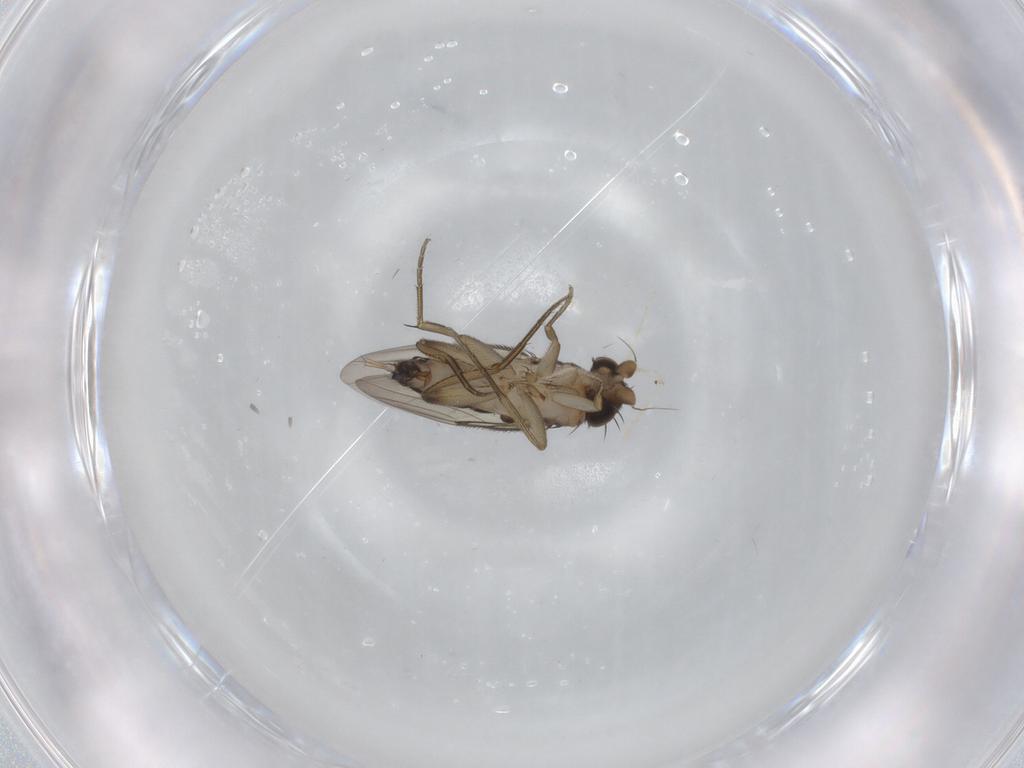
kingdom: Animalia
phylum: Arthropoda
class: Insecta
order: Diptera
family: Phoridae
